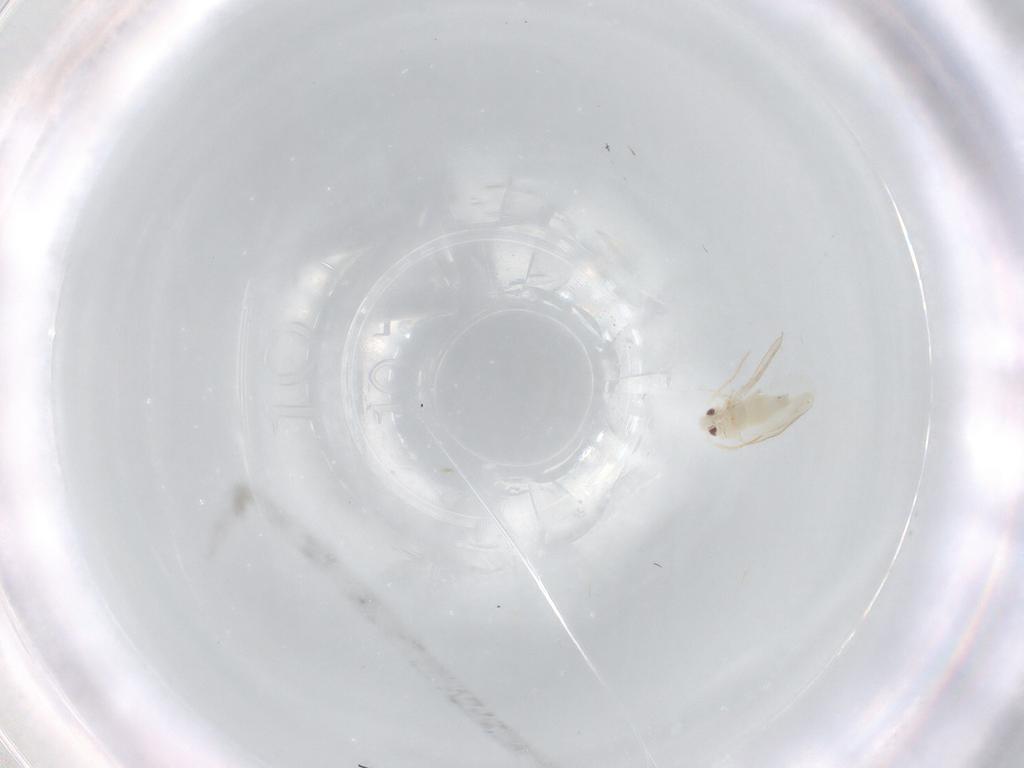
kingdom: Animalia
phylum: Arthropoda
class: Insecta
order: Hemiptera
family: Aleyrodidae
